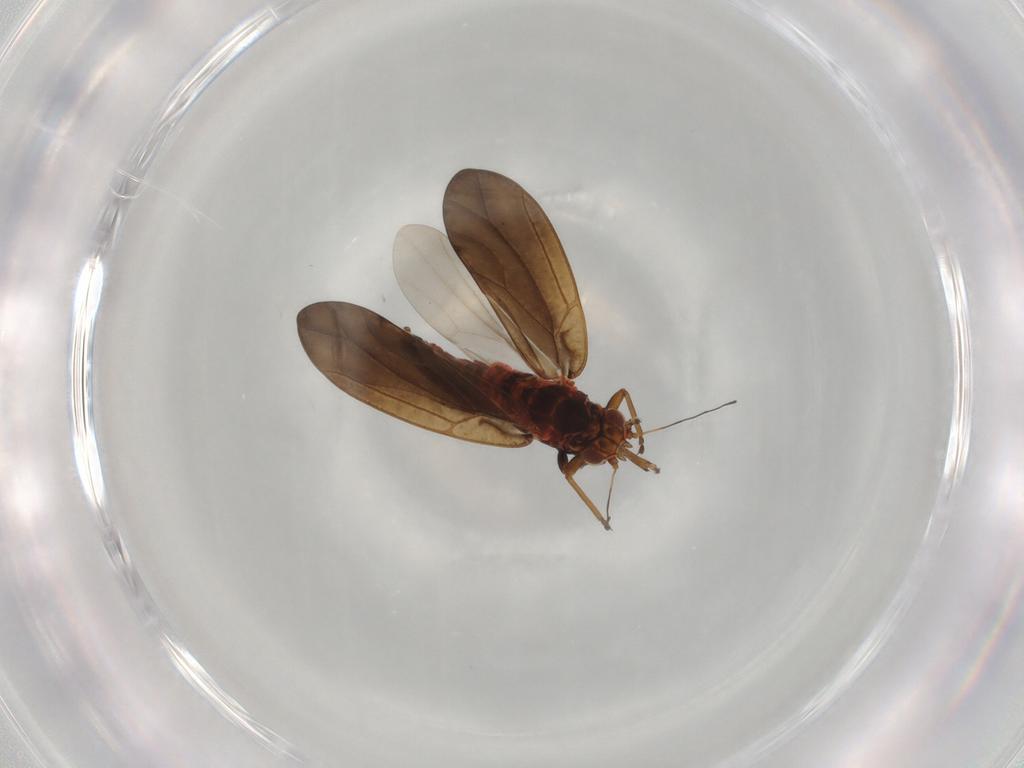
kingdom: Animalia
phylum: Arthropoda
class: Insecta
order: Hemiptera
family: Triozidae
